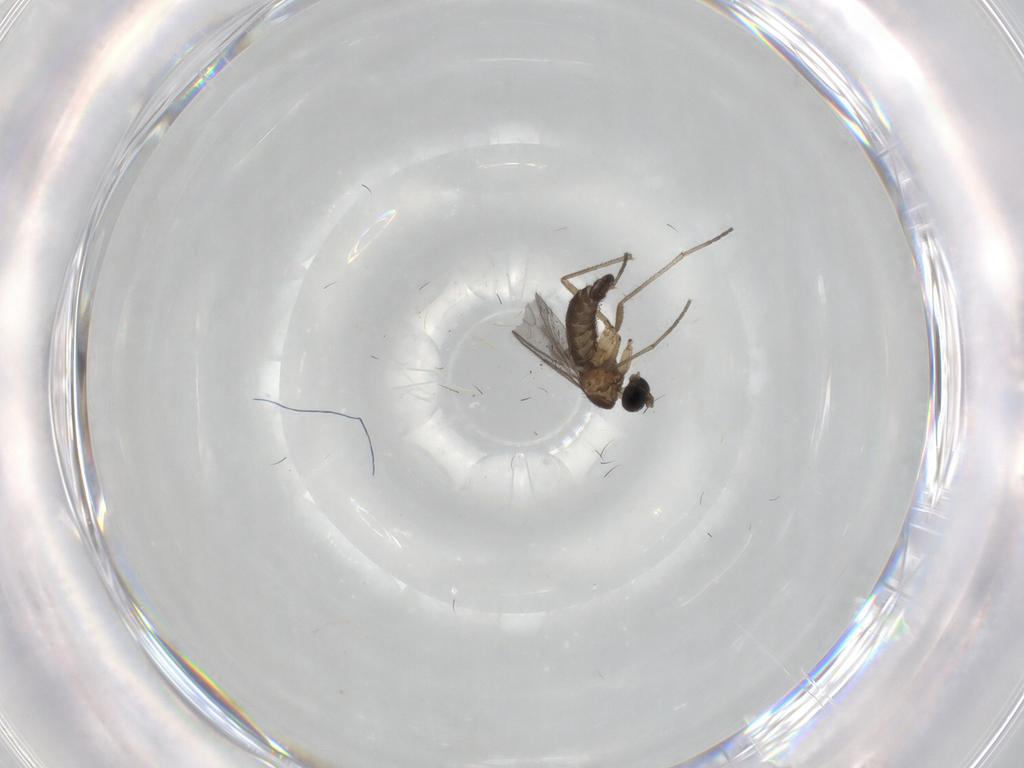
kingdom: Animalia
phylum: Arthropoda
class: Insecta
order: Diptera
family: Sciaridae
